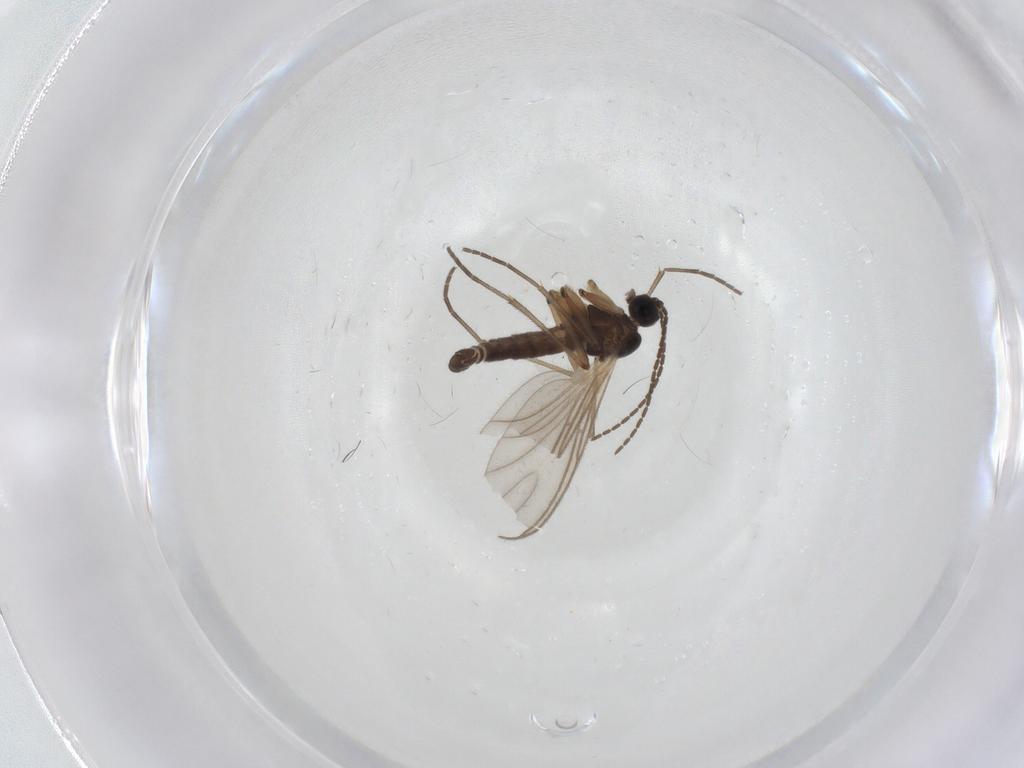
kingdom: Animalia
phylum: Arthropoda
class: Insecta
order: Diptera
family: Sciaridae
